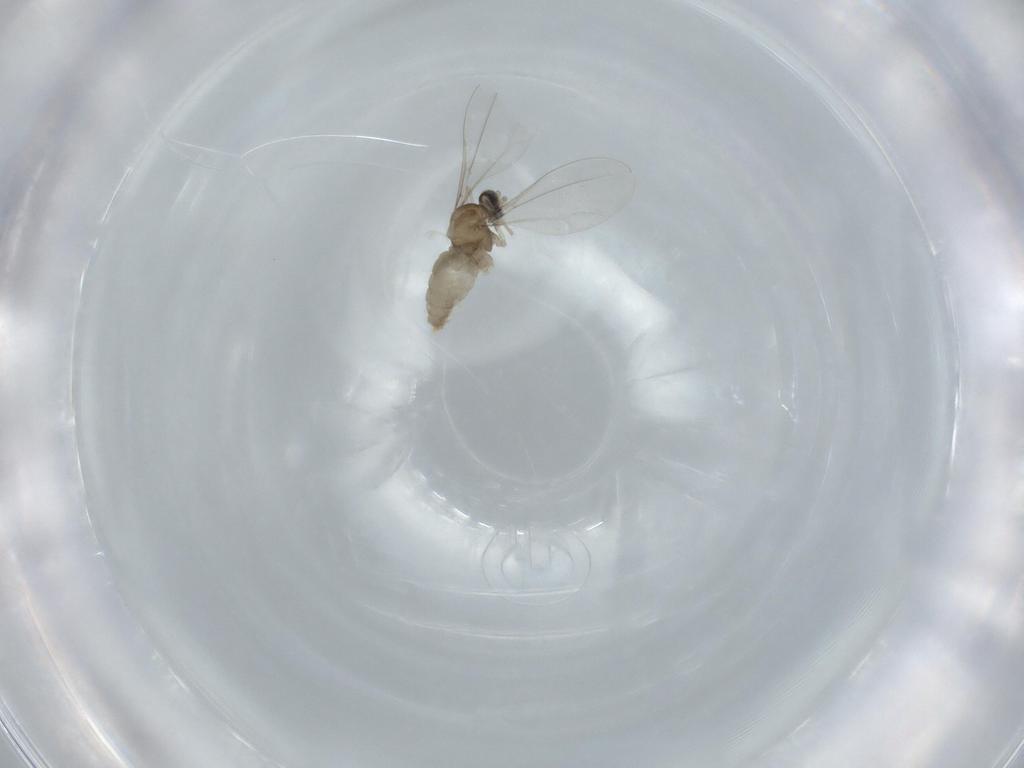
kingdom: Animalia
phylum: Arthropoda
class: Insecta
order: Diptera
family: Cecidomyiidae
